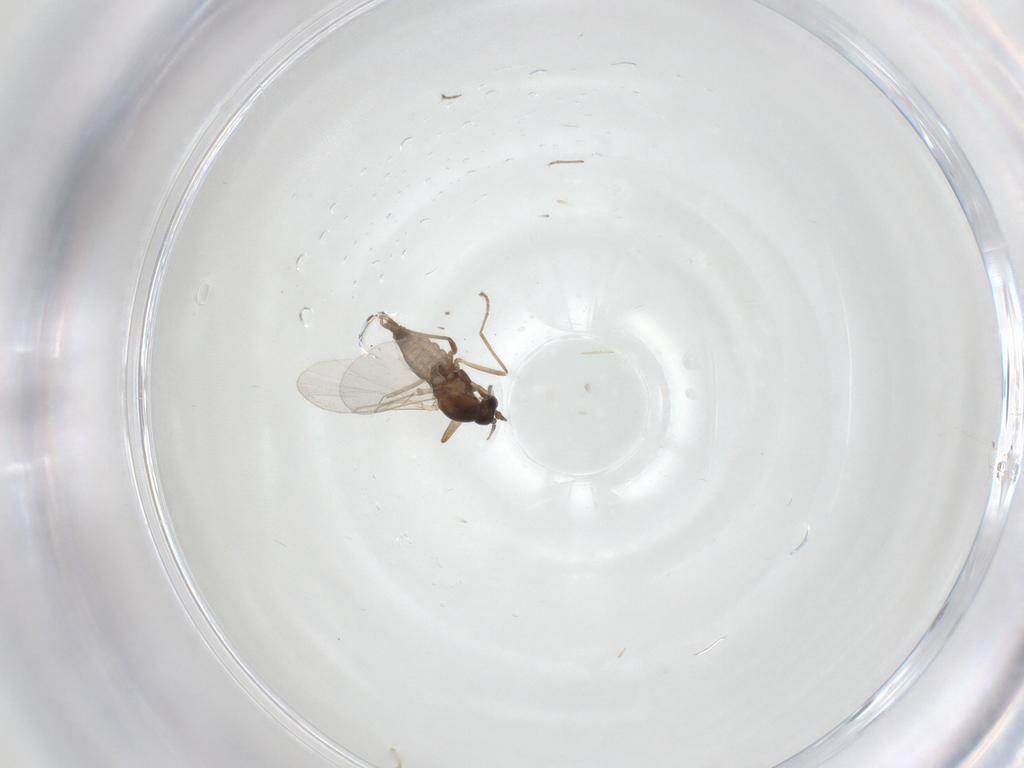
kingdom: Animalia
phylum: Arthropoda
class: Insecta
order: Diptera
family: Cecidomyiidae
